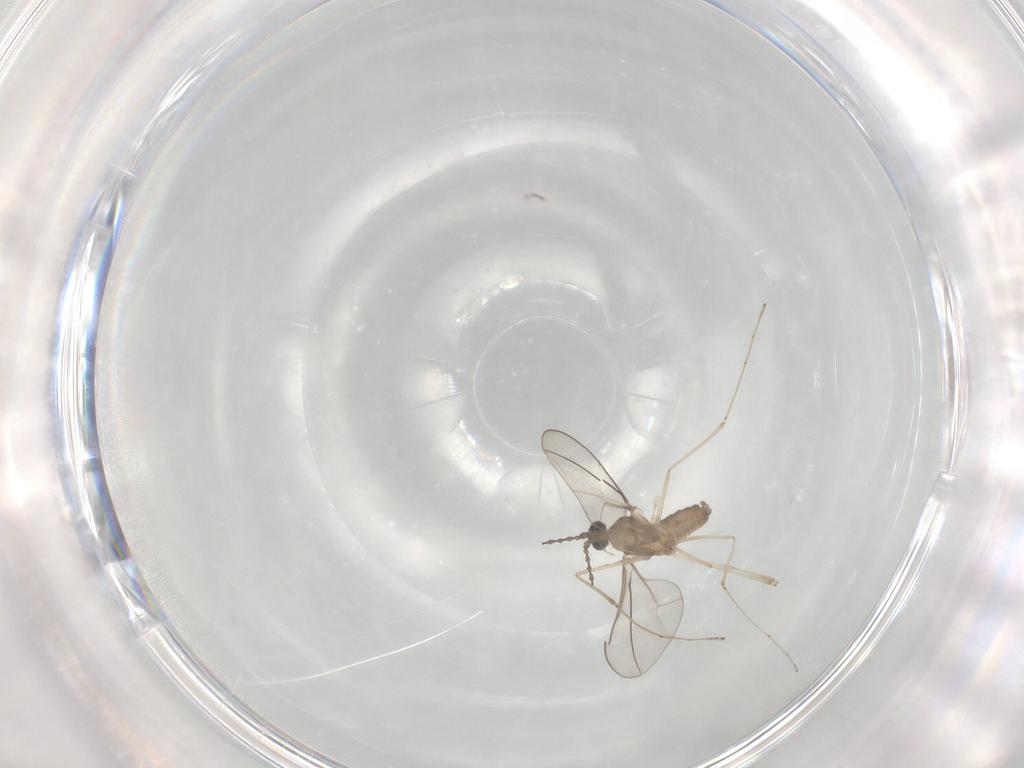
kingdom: Animalia
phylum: Arthropoda
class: Insecta
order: Diptera
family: Cecidomyiidae
